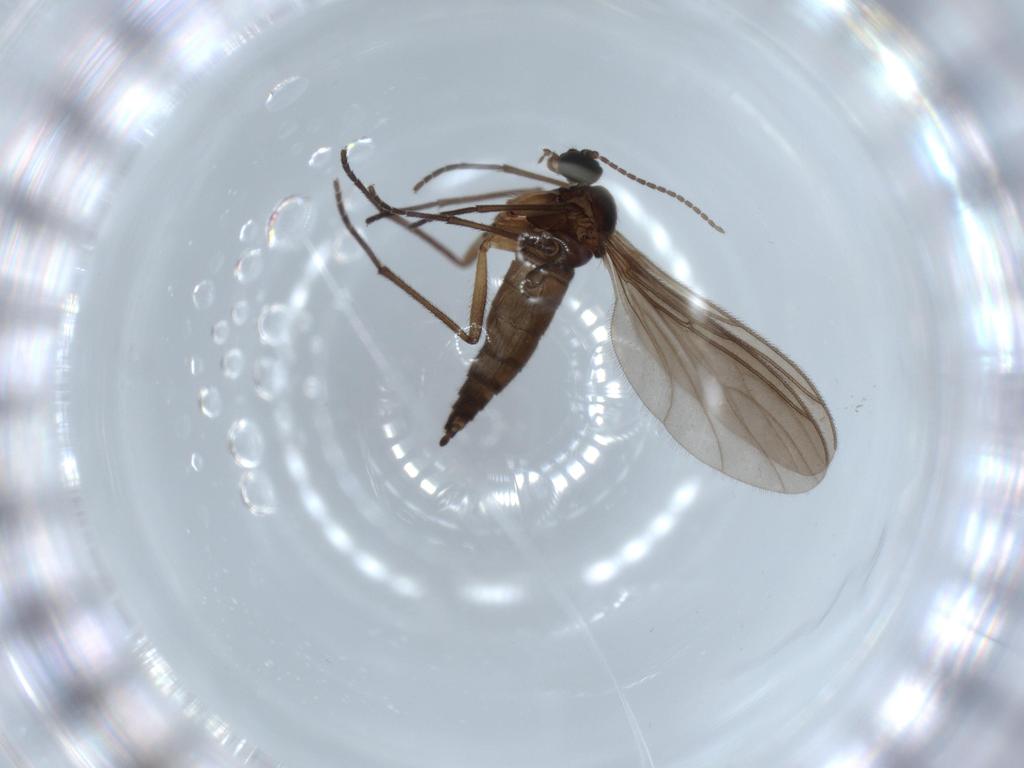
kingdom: Animalia
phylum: Arthropoda
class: Insecta
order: Diptera
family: Sciaridae
